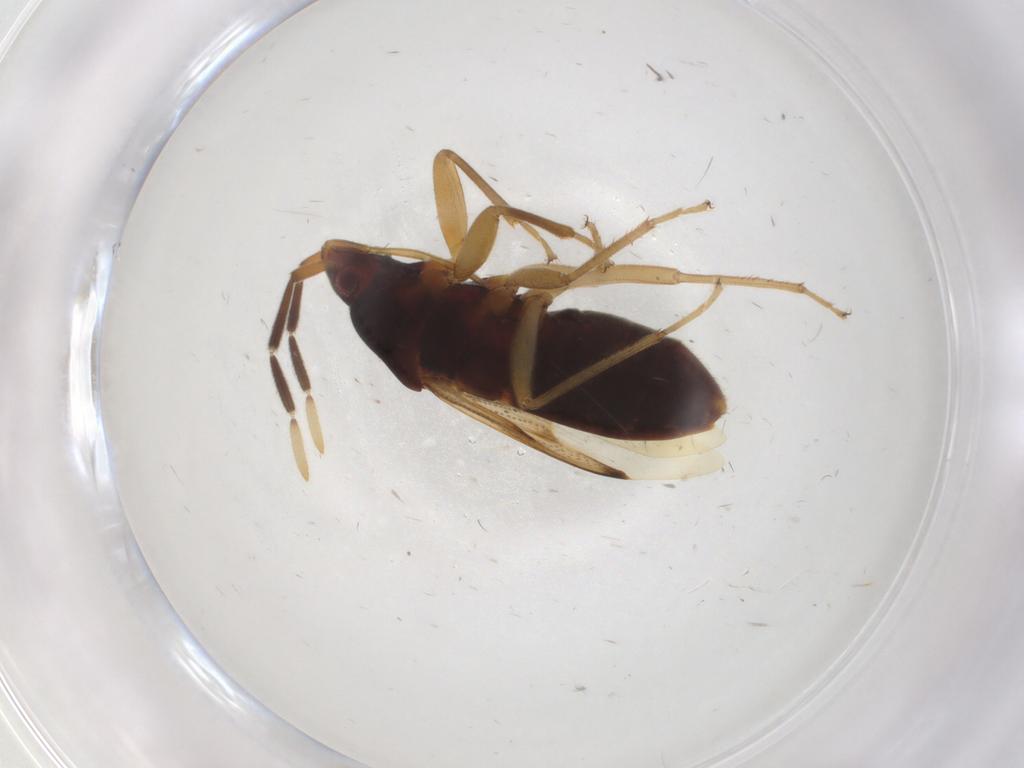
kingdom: Animalia
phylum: Arthropoda
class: Insecta
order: Hemiptera
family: Rhyparochromidae
